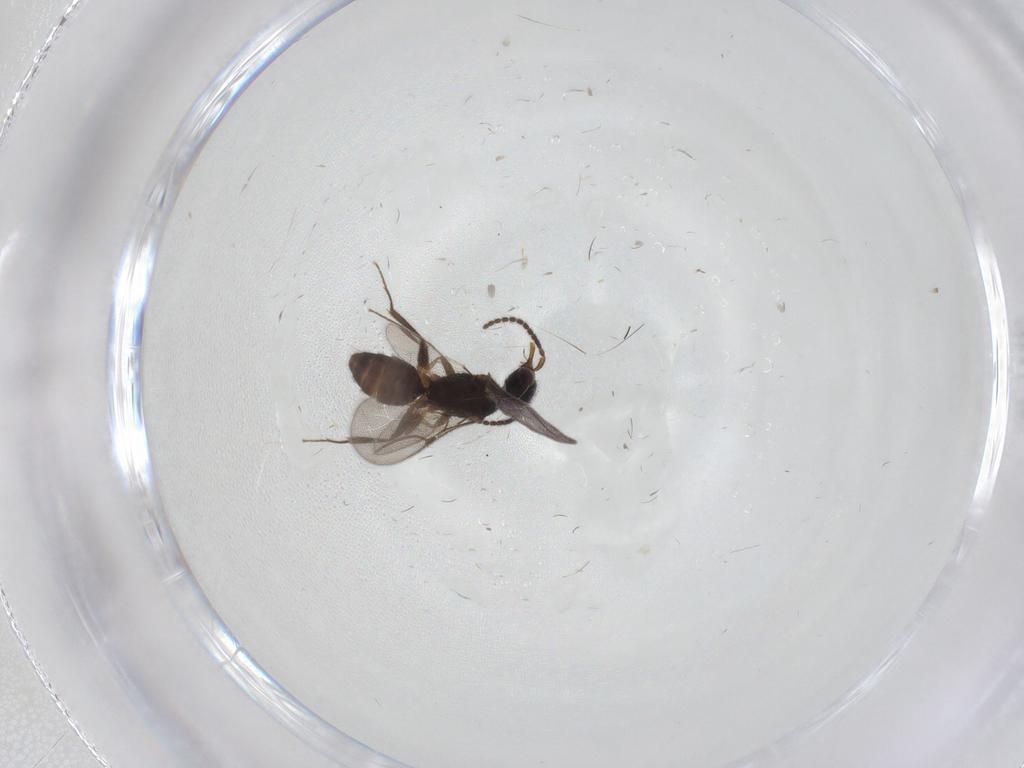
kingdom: Animalia
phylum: Arthropoda
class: Insecta
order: Hymenoptera
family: Bethylidae
